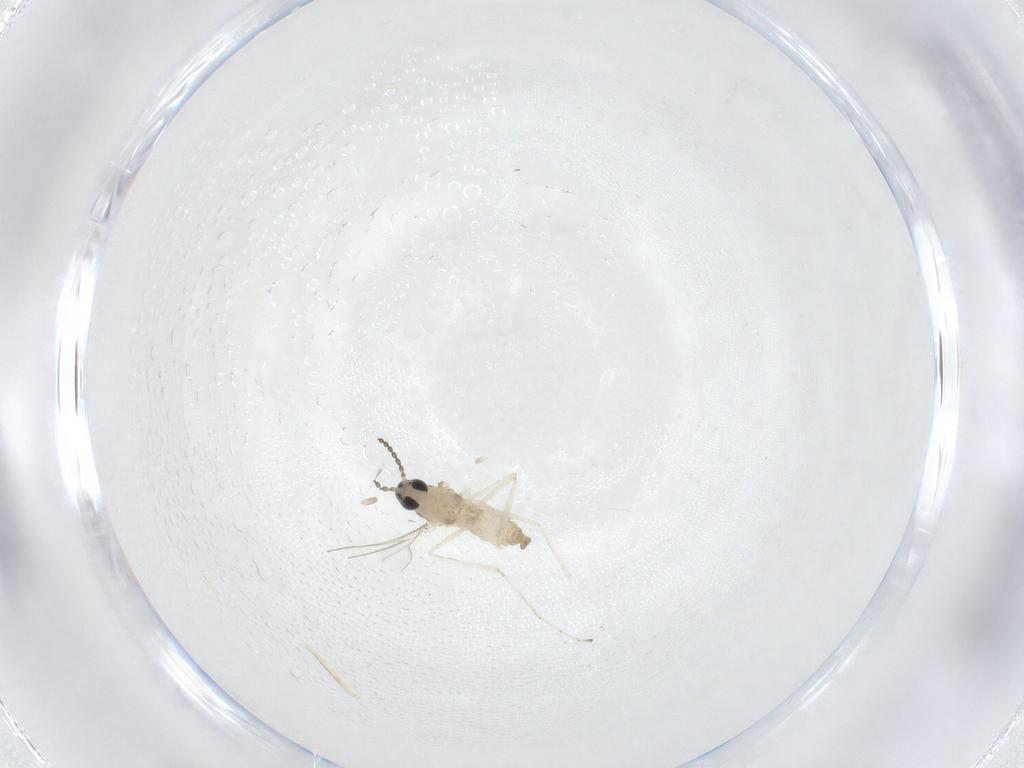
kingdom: Animalia
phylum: Arthropoda
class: Insecta
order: Diptera
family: Cecidomyiidae
